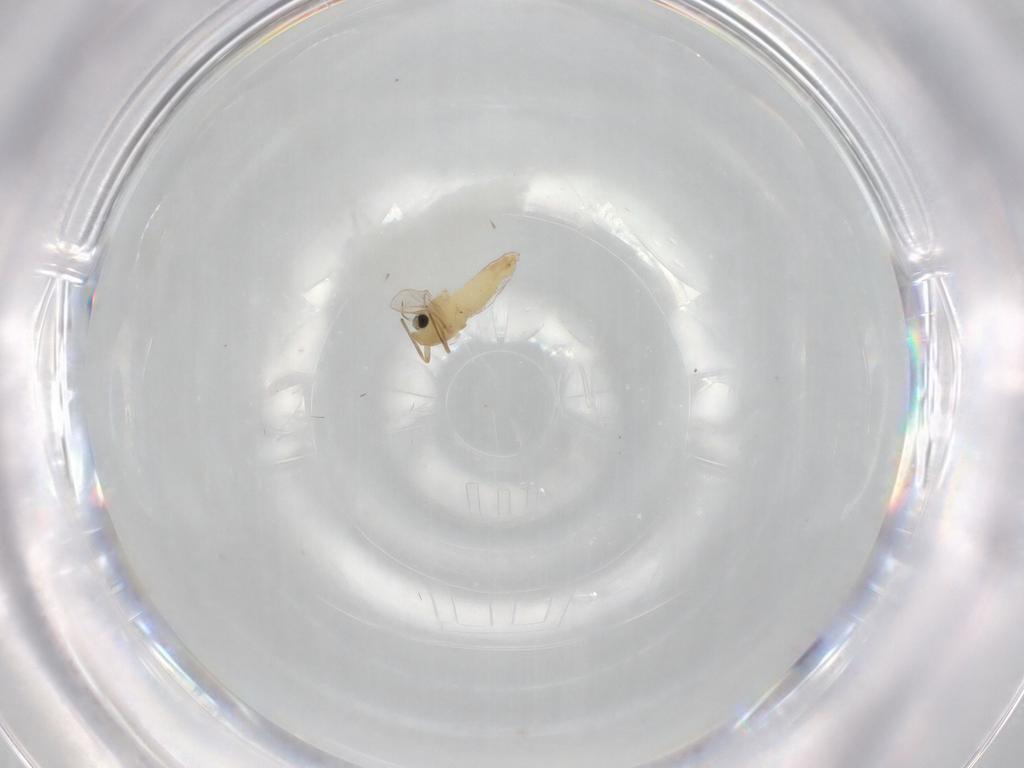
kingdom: Animalia
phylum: Arthropoda
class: Insecta
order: Diptera
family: Chironomidae
